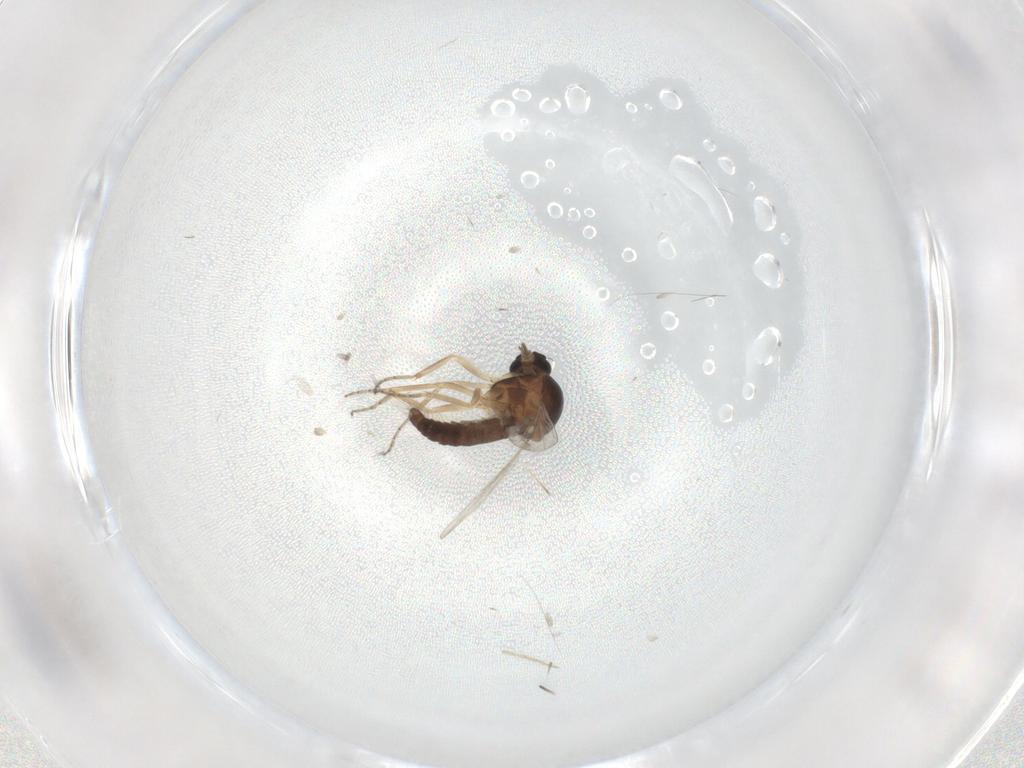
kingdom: Animalia
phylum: Arthropoda
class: Insecta
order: Diptera
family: Ceratopogonidae
